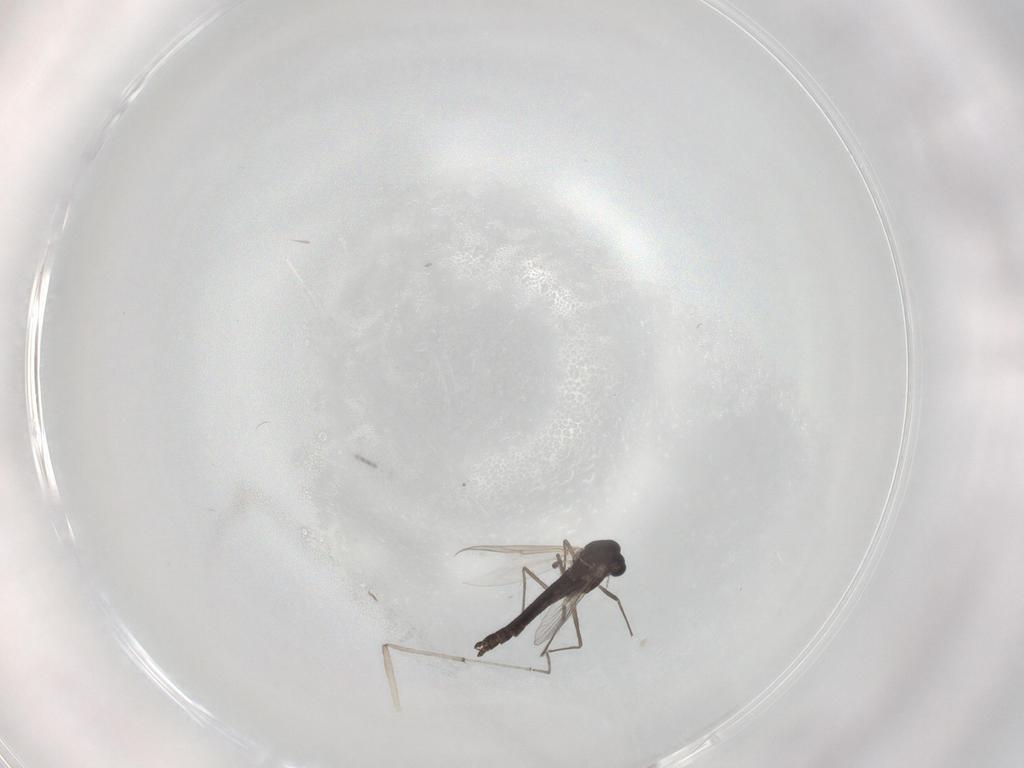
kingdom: Animalia
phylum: Arthropoda
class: Insecta
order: Diptera
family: Chironomidae
